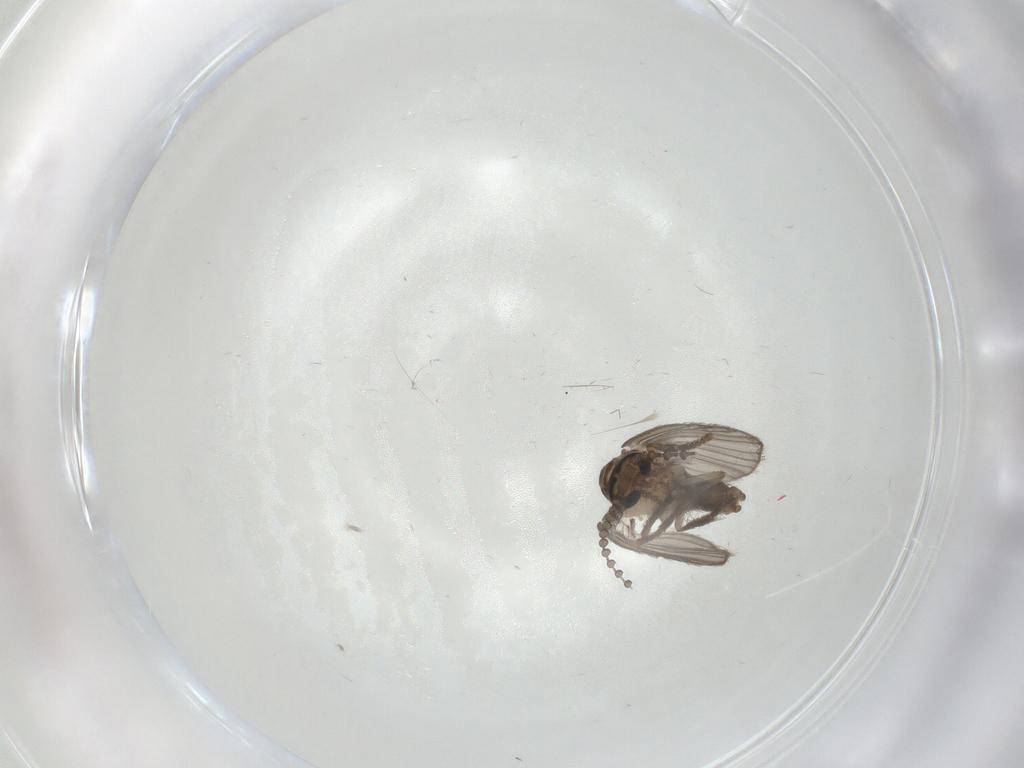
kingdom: Animalia
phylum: Arthropoda
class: Insecta
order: Diptera
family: Psychodidae
